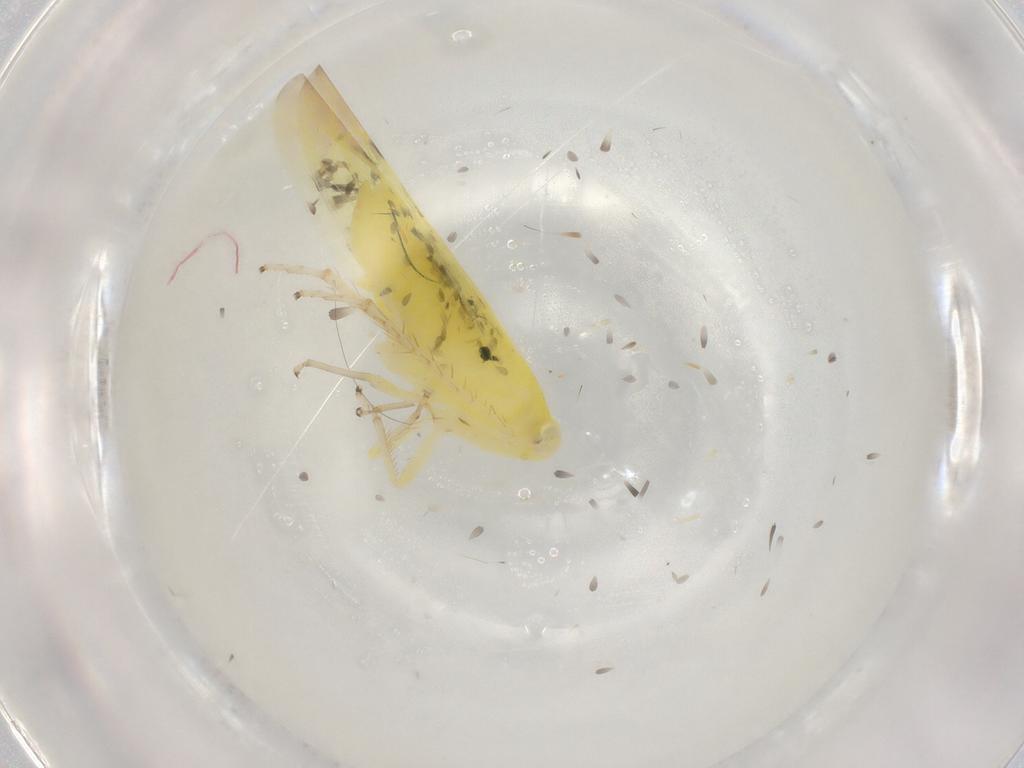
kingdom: Animalia
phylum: Arthropoda
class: Insecta
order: Hemiptera
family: Cicadellidae
